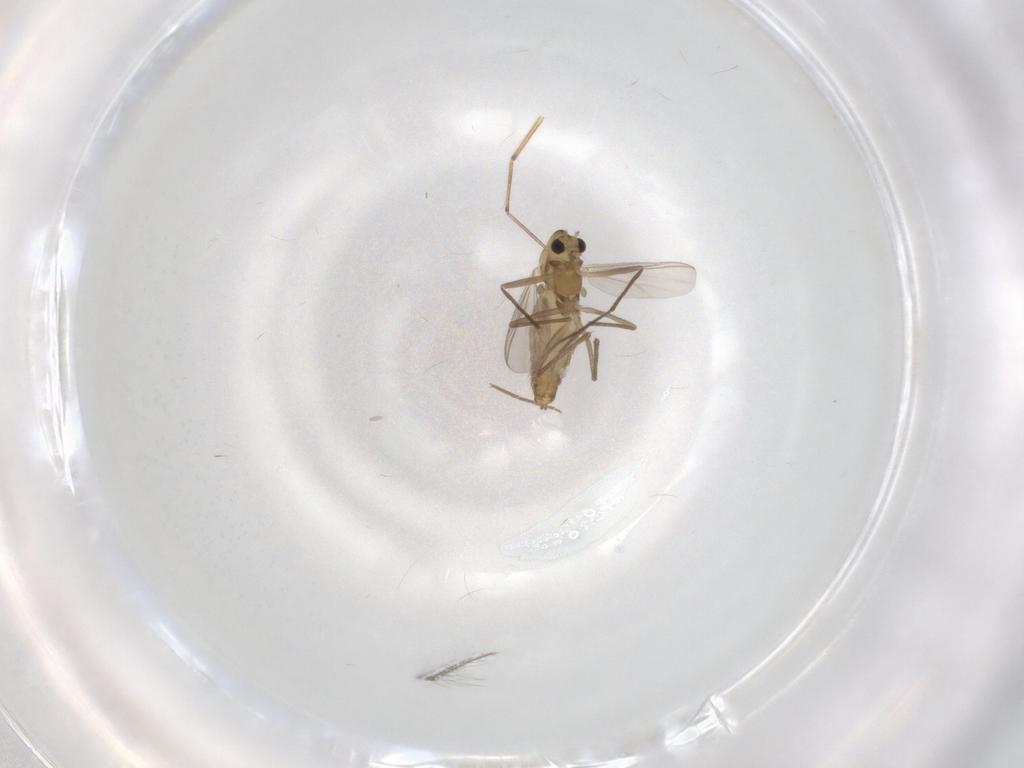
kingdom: Animalia
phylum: Arthropoda
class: Insecta
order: Diptera
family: Chironomidae
